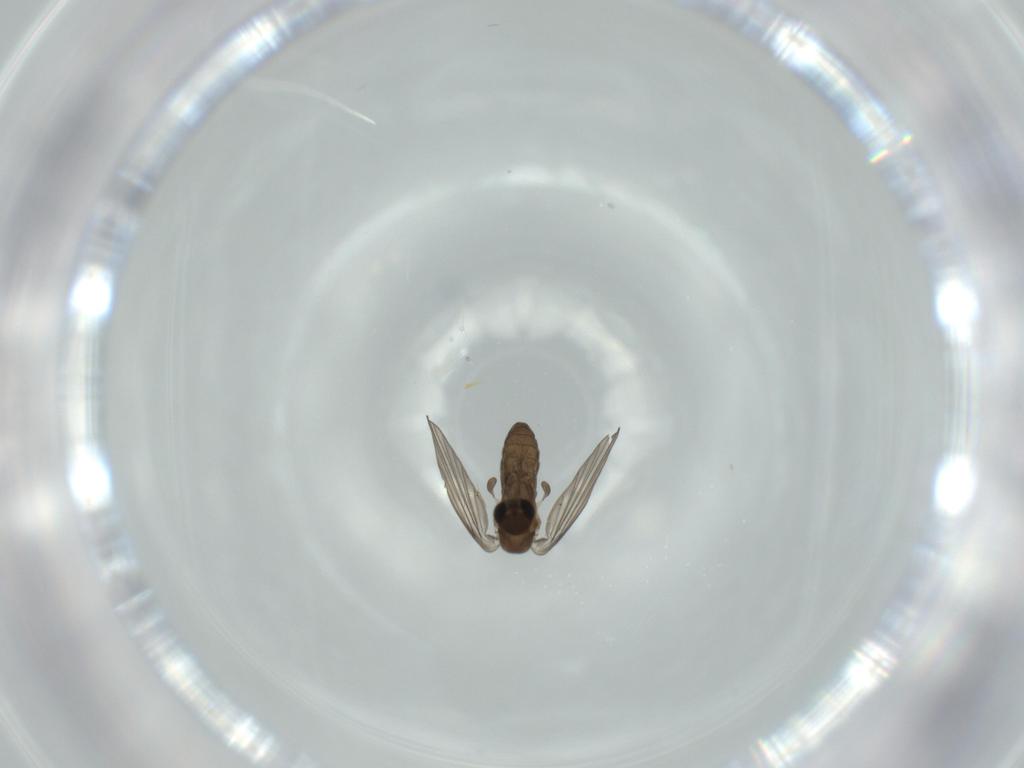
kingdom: Animalia
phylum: Arthropoda
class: Insecta
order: Diptera
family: Psychodidae
